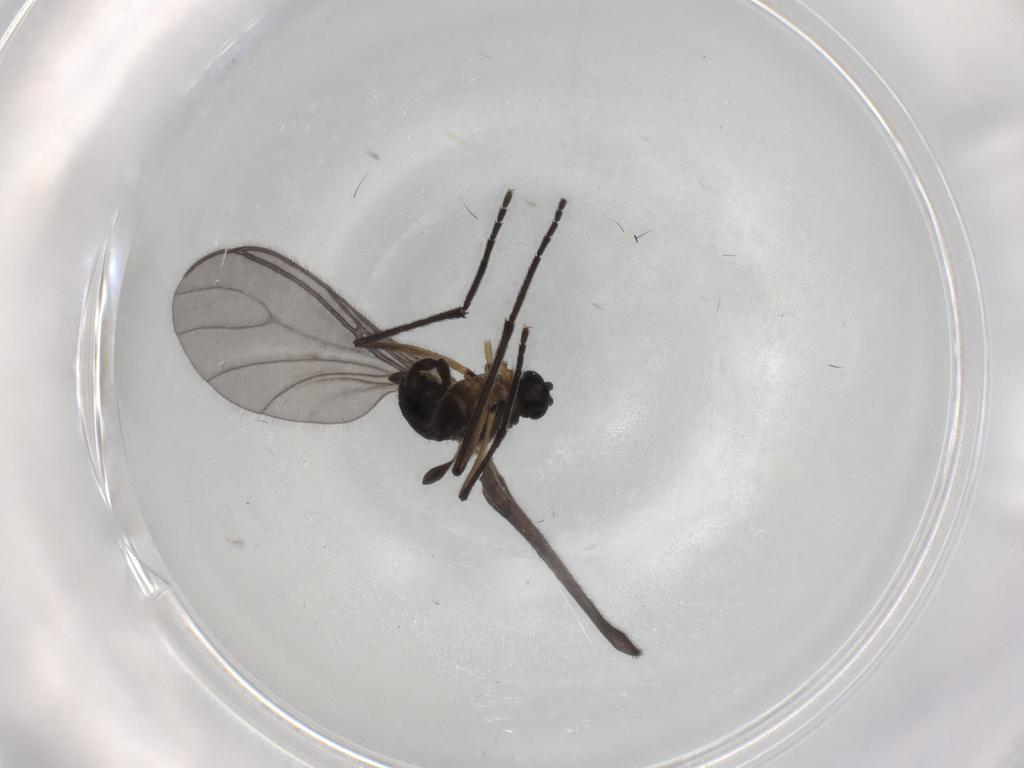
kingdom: Animalia
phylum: Arthropoda
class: Insecta
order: Diptera
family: Sciaridae
